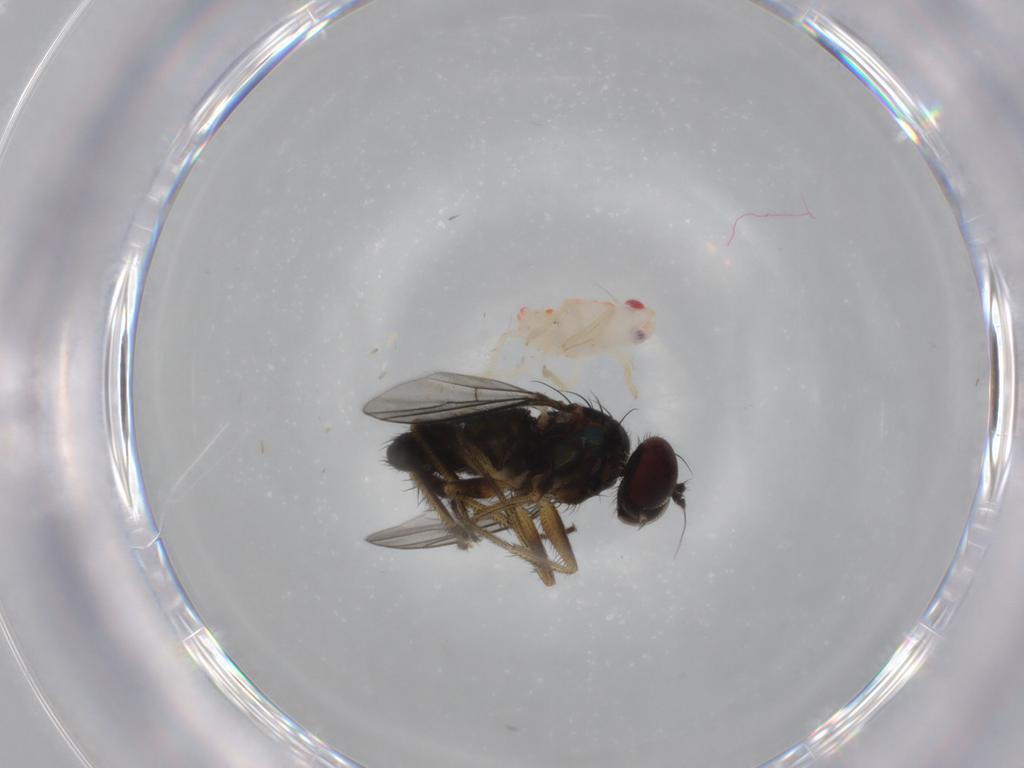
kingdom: Animalia
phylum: Arthropoda
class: Insecta
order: Diptera
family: Dolichopodidae
